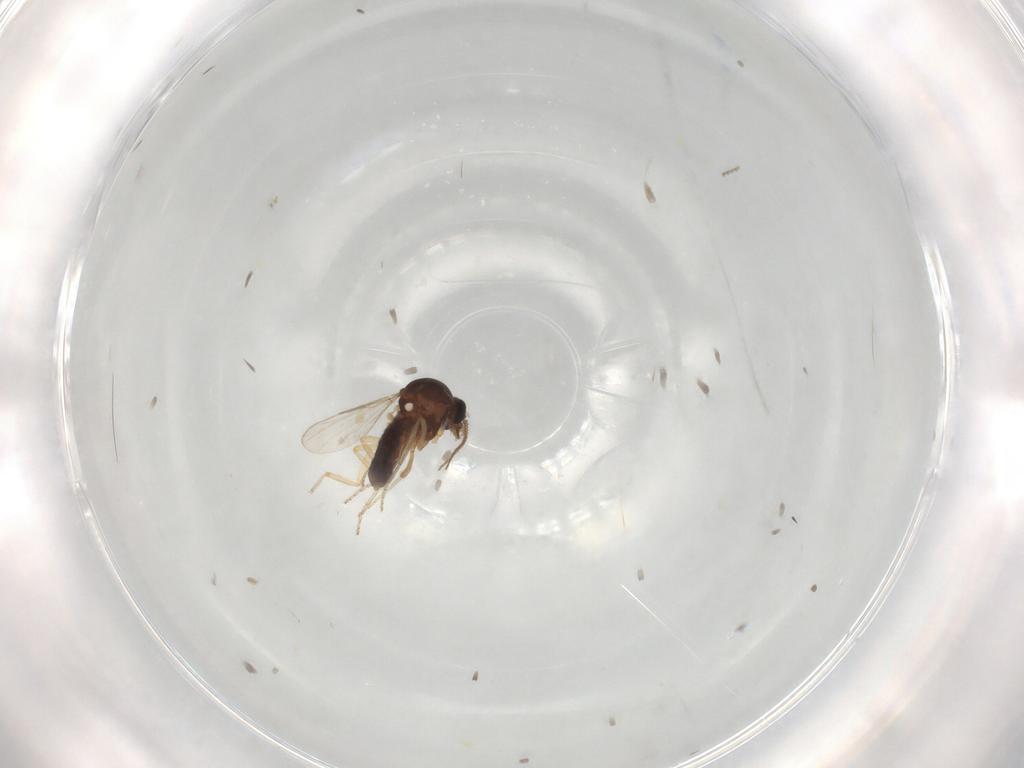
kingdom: Animalia
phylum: Arthropoda
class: Insecta
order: Diptera
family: Ceratopogonidae
